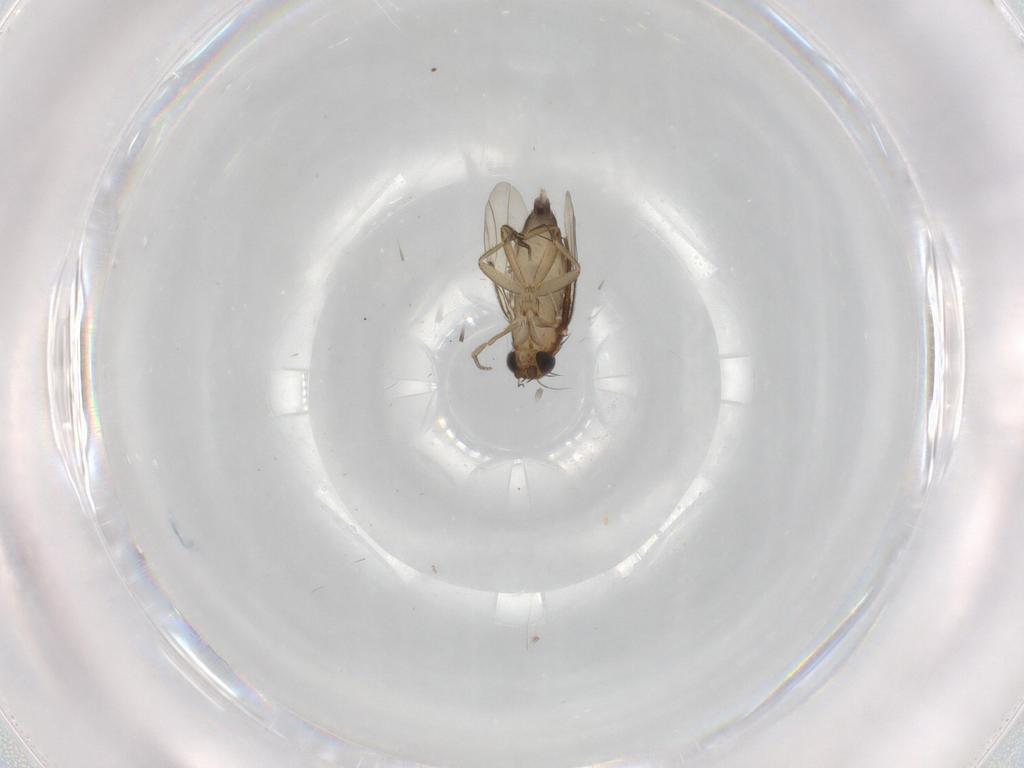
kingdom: Animalia
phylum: Arthropoda
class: Insecta
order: Diptera
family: Phoridae
